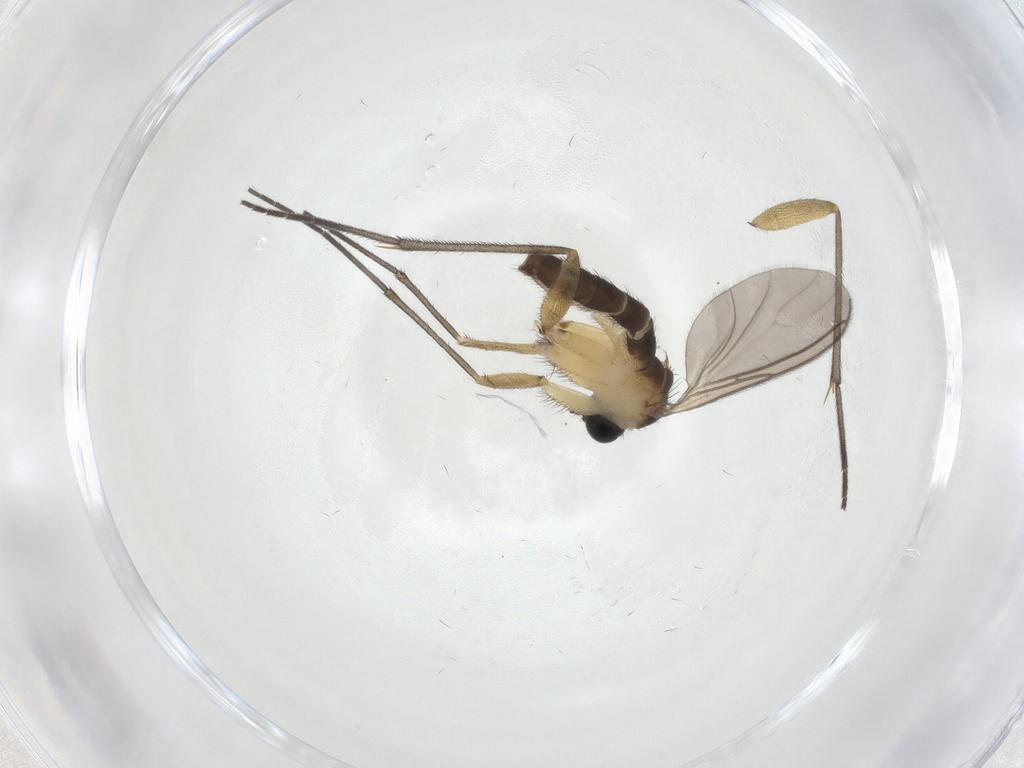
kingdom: Animalia
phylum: Arthropoda
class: Insecta
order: Diptera
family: Sciaridae
